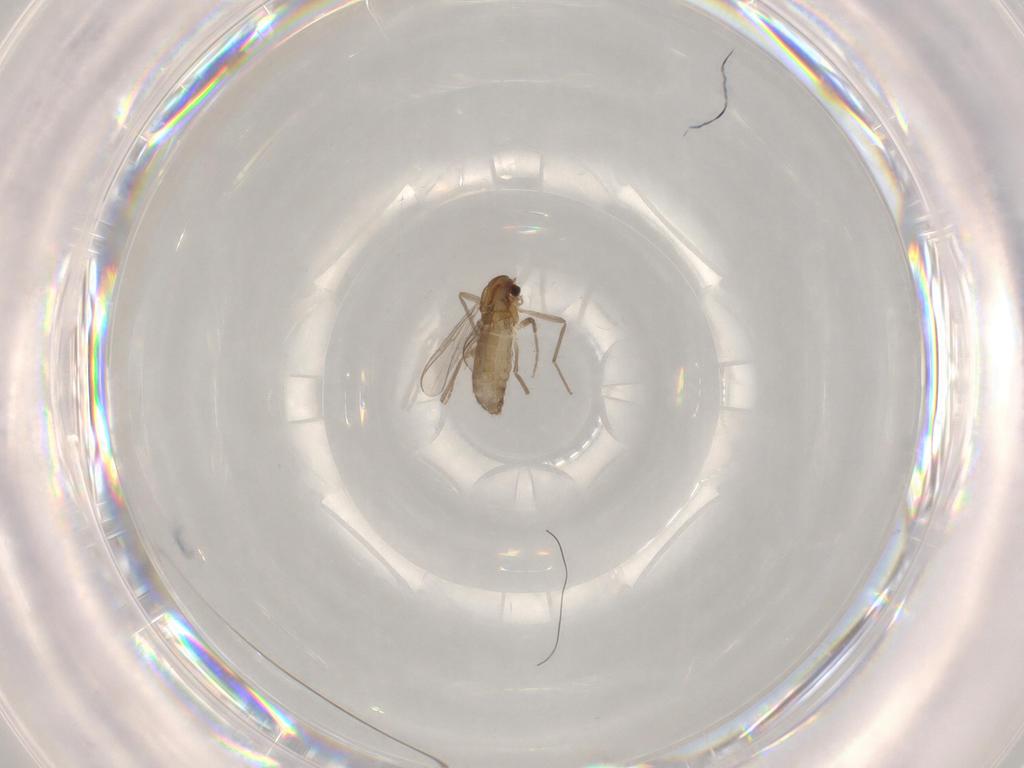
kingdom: Animalia
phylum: Arthropoda
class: Insecta
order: Diptera
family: Chironomidae
